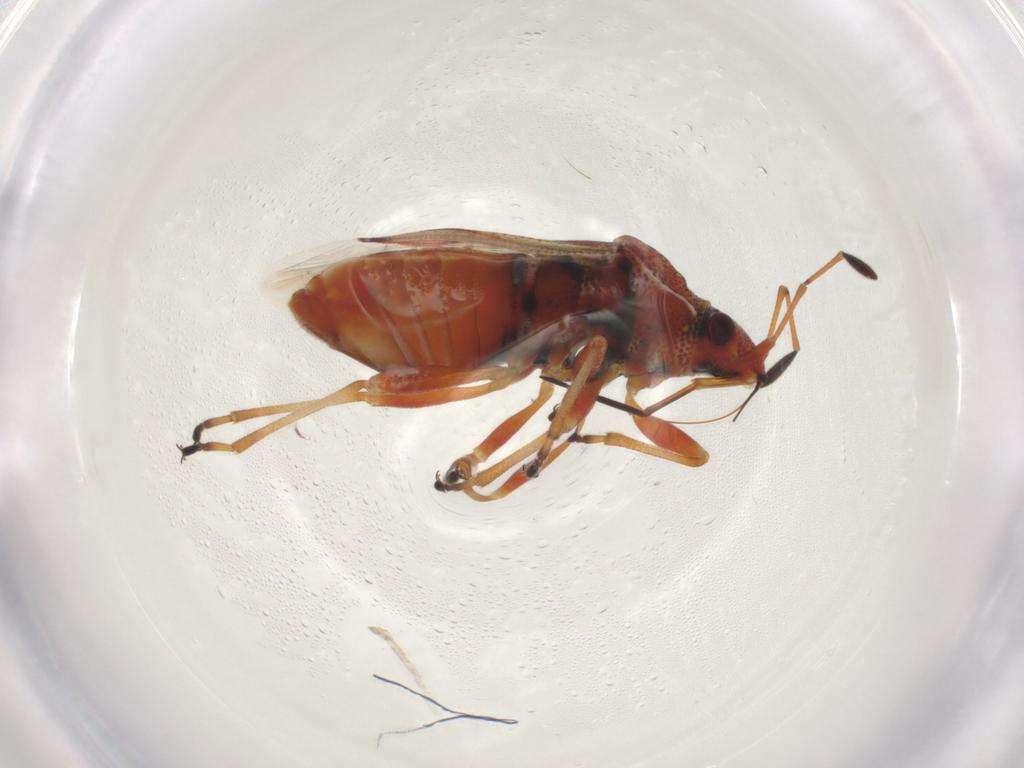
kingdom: Animalia
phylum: Arthropoda
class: Insecta
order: Hemiptera
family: Lygaeidae
